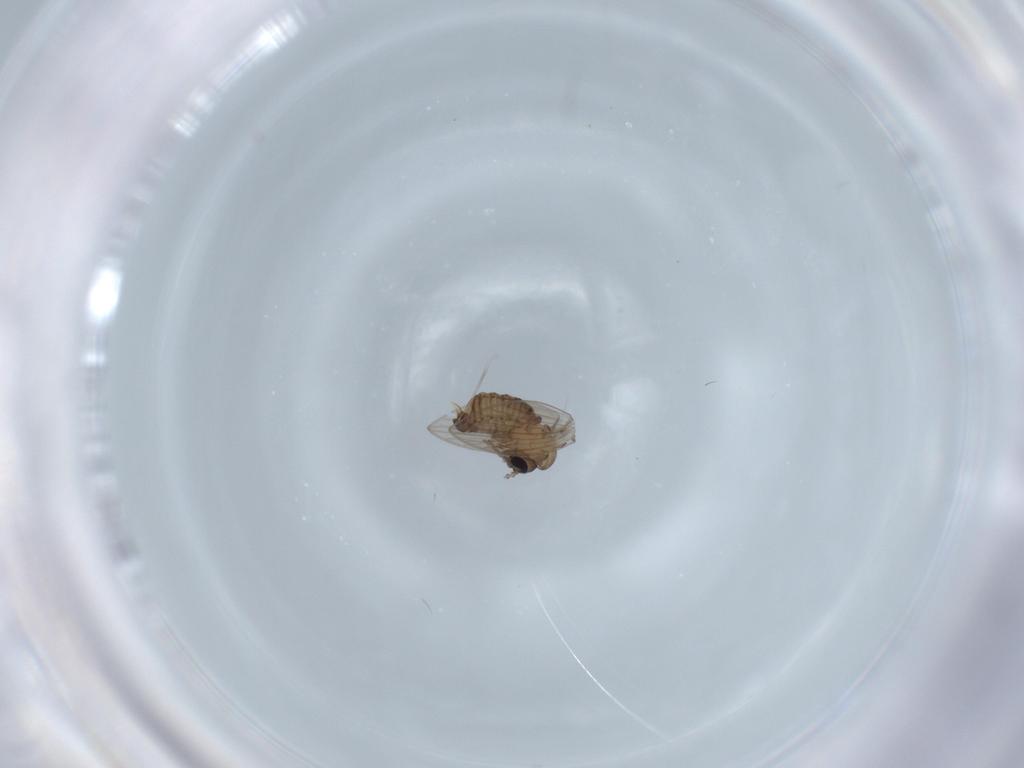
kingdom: Animalia
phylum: Arthropoda
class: Insecta
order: Diptera
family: Psychodidae
